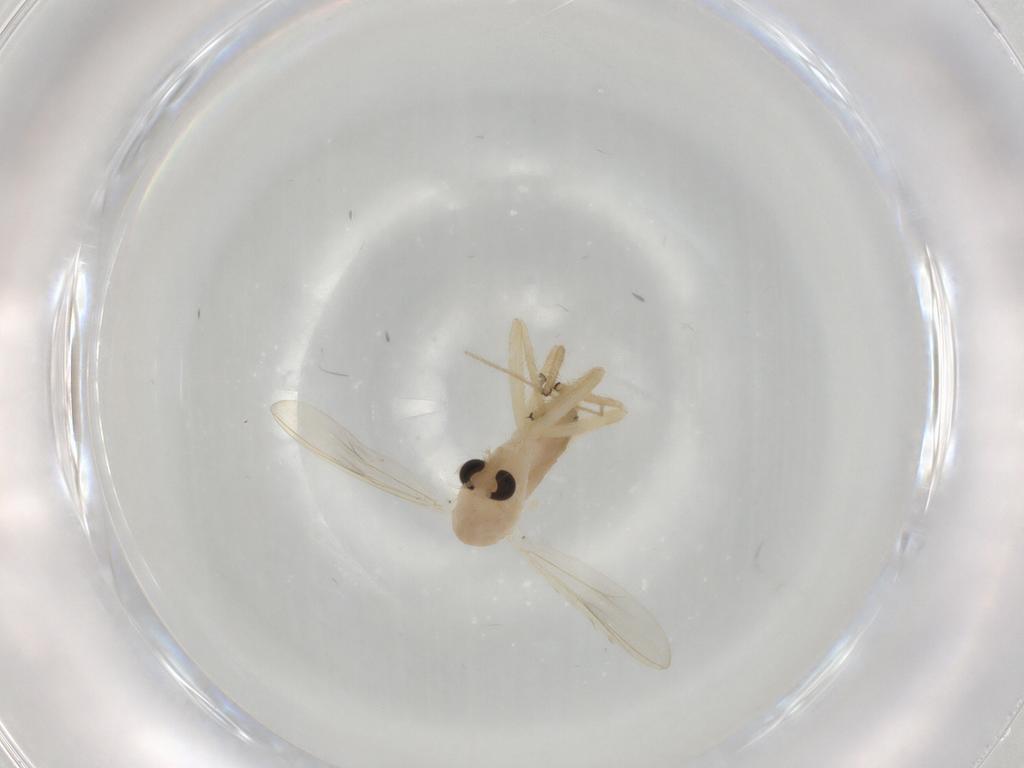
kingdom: Animalia
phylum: Arthropoda
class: Insecta
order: Diptera
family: Chironomidae
